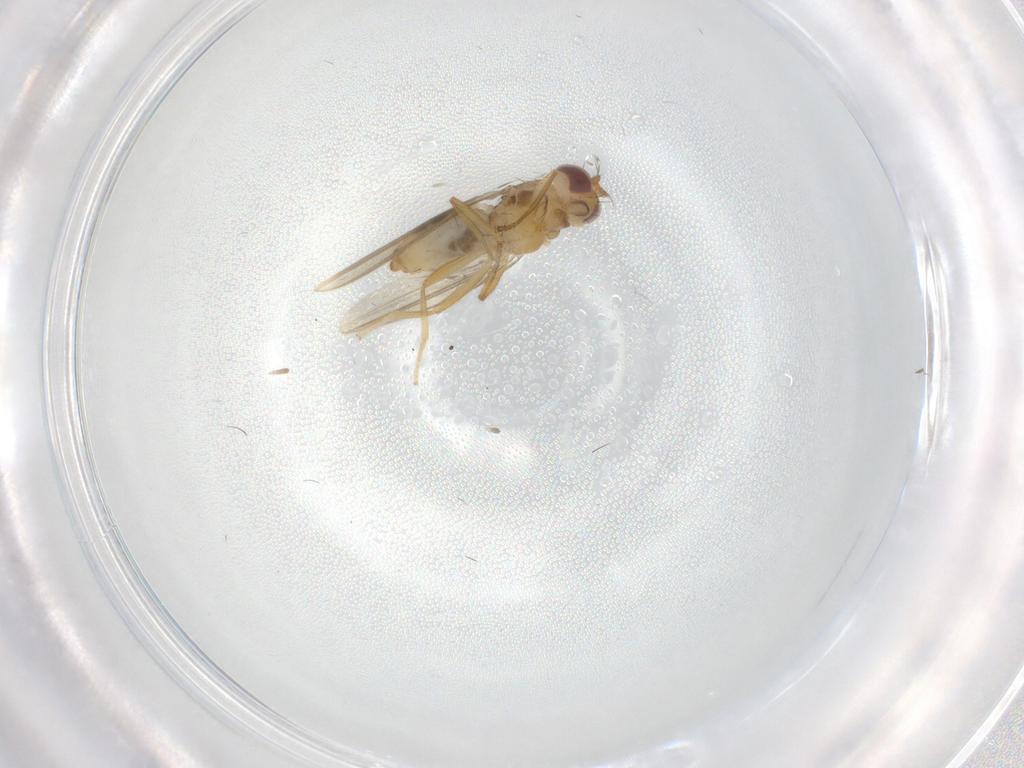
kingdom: Animalia
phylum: Arthropoda
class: Insecta
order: Diptera
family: Periscelididae
